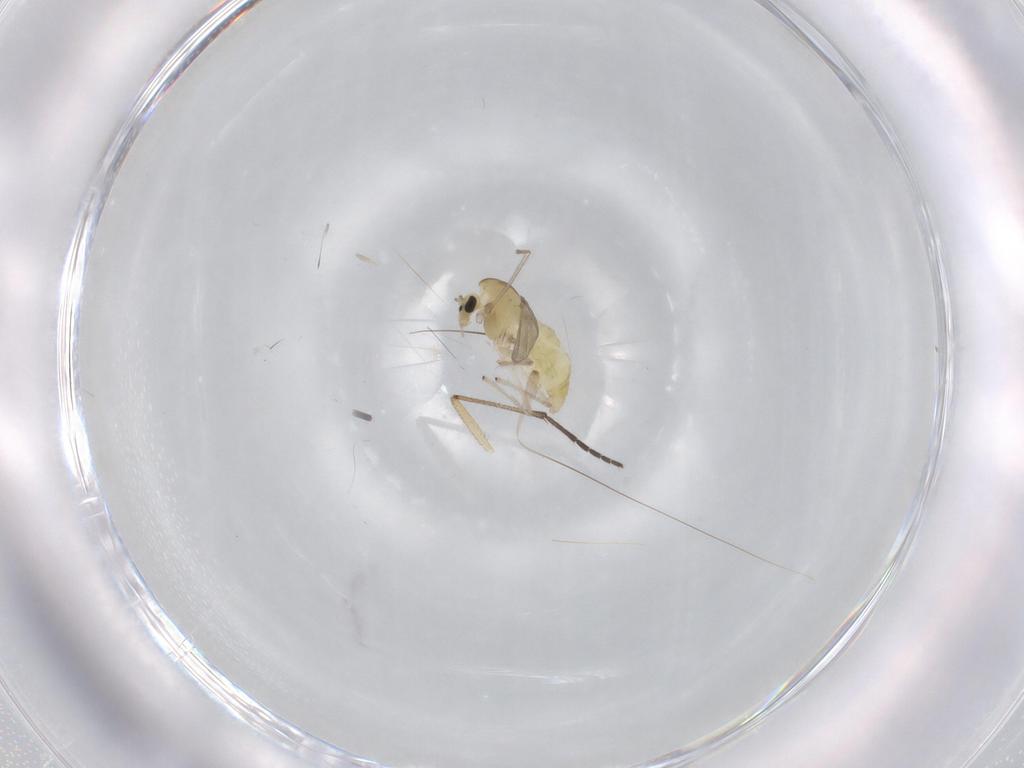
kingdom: Animalia
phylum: Arthropoda
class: Insecta
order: Diptera
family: Chironomidae
